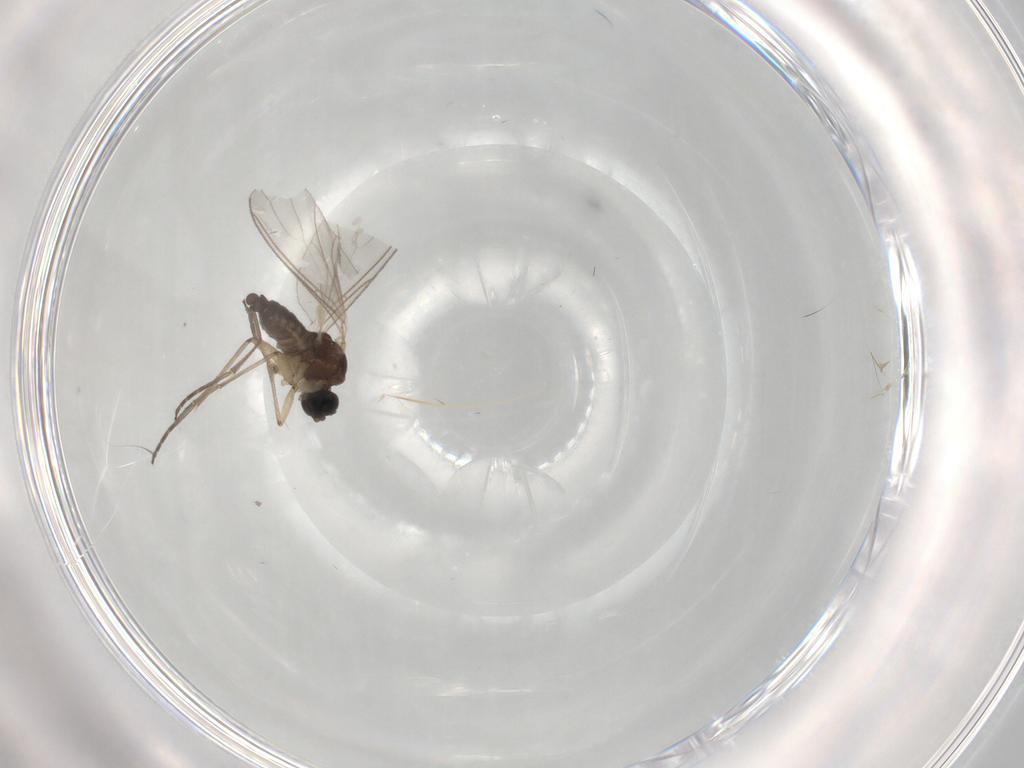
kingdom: Animalia
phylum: Arthropoda
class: Insecta
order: Diptera
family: Sciaridae
